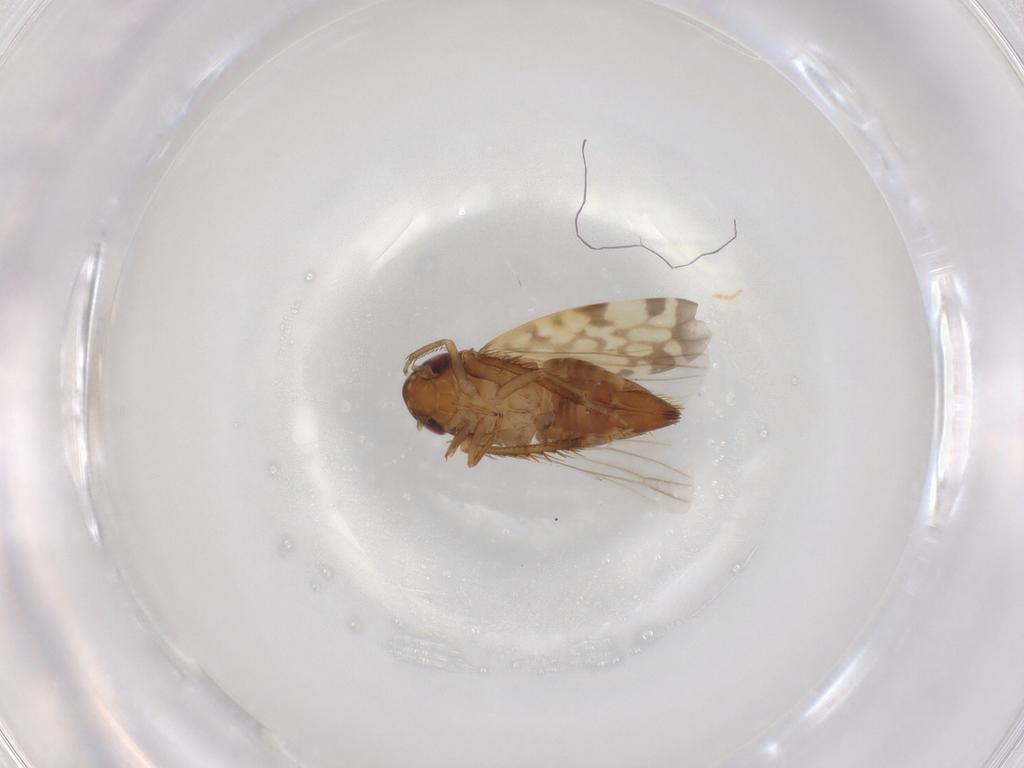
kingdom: Animalia
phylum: Arthropoda
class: Insecta
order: Hemiptera
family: Cicadellidae
